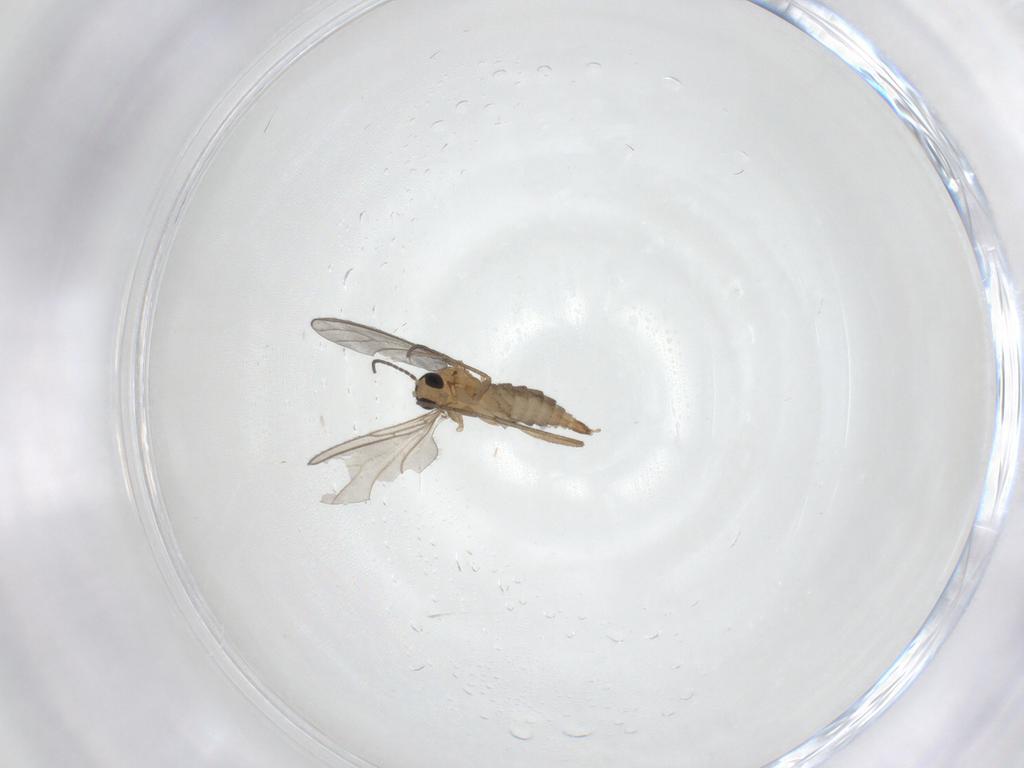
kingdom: Animalia
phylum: Arthropoda
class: Insecta
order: Diptera
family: Sciaridae
